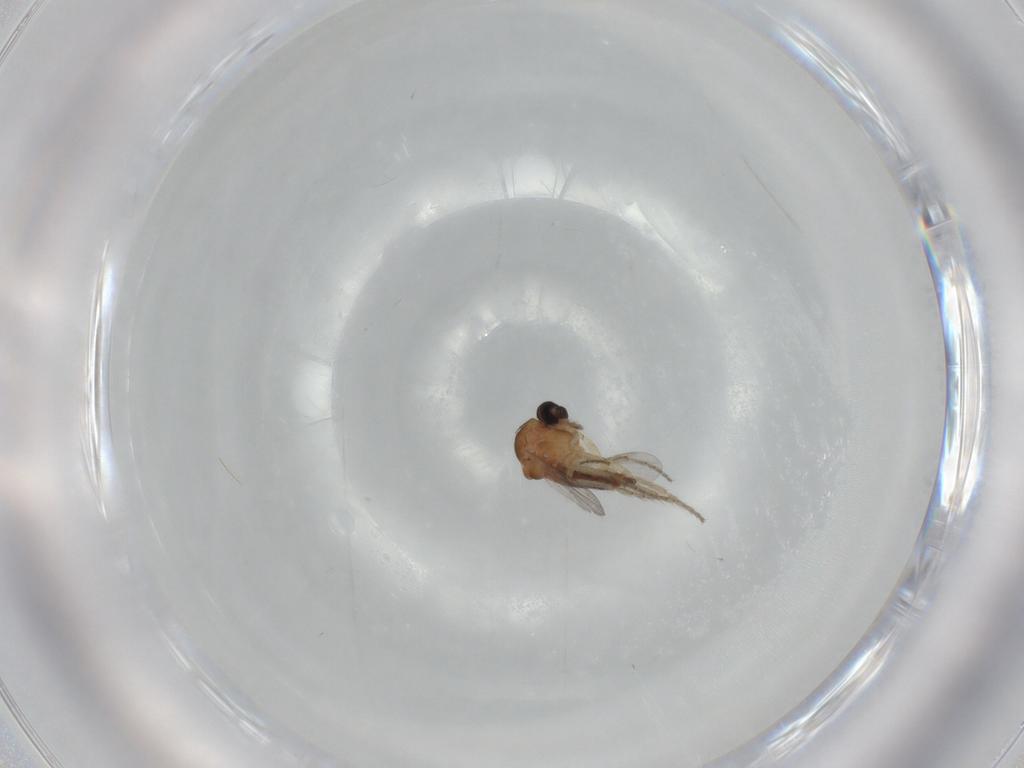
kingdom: Animalia
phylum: Arthropoda
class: Insecta
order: Diptera
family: Ceratopogonidae
